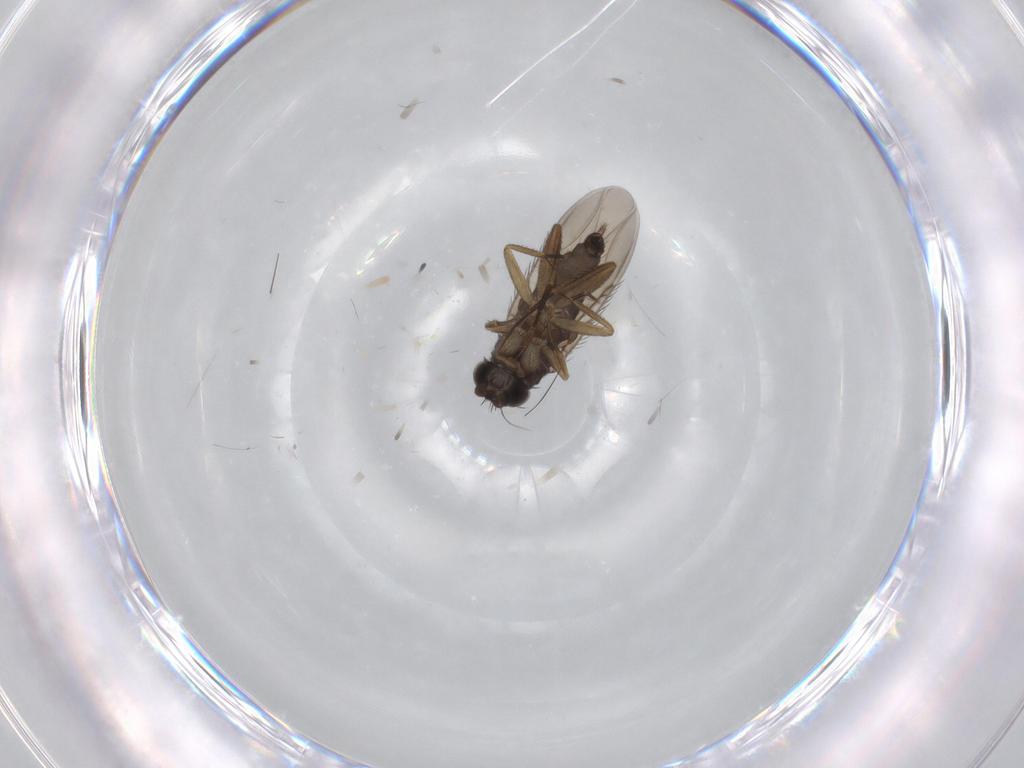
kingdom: Animalia
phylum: Arthropoda
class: Insecta
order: Diptera
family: Phoridae
